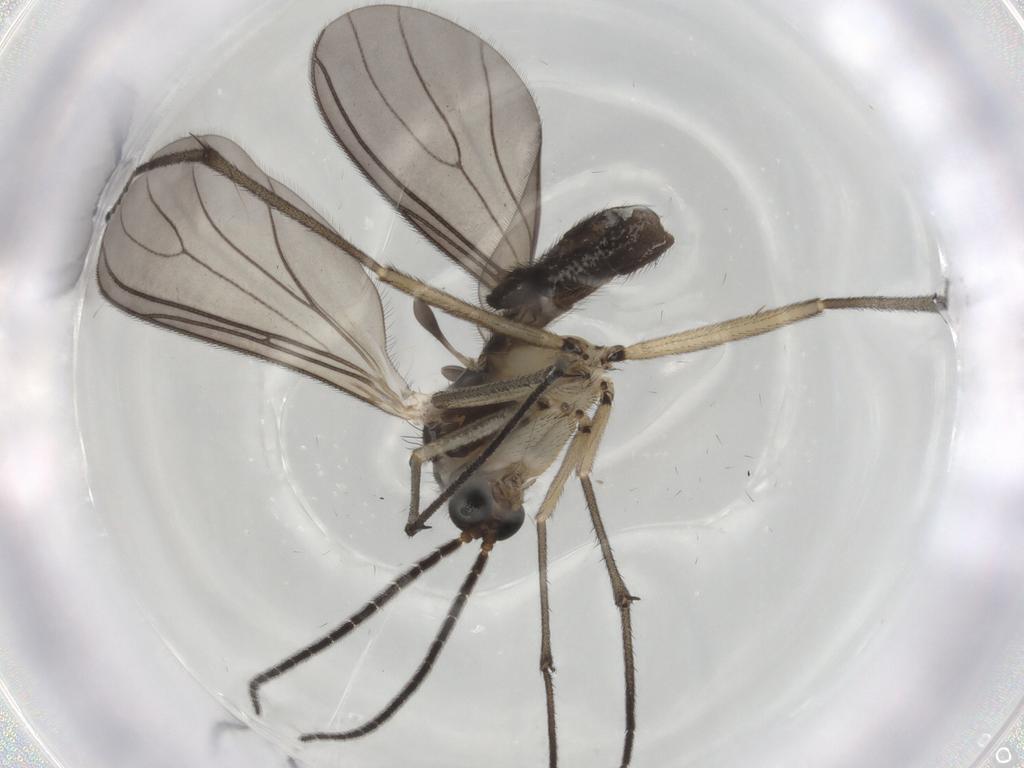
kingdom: Animalia
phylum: Arthropoda
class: Insecta
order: Diptera
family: Sciaridae
